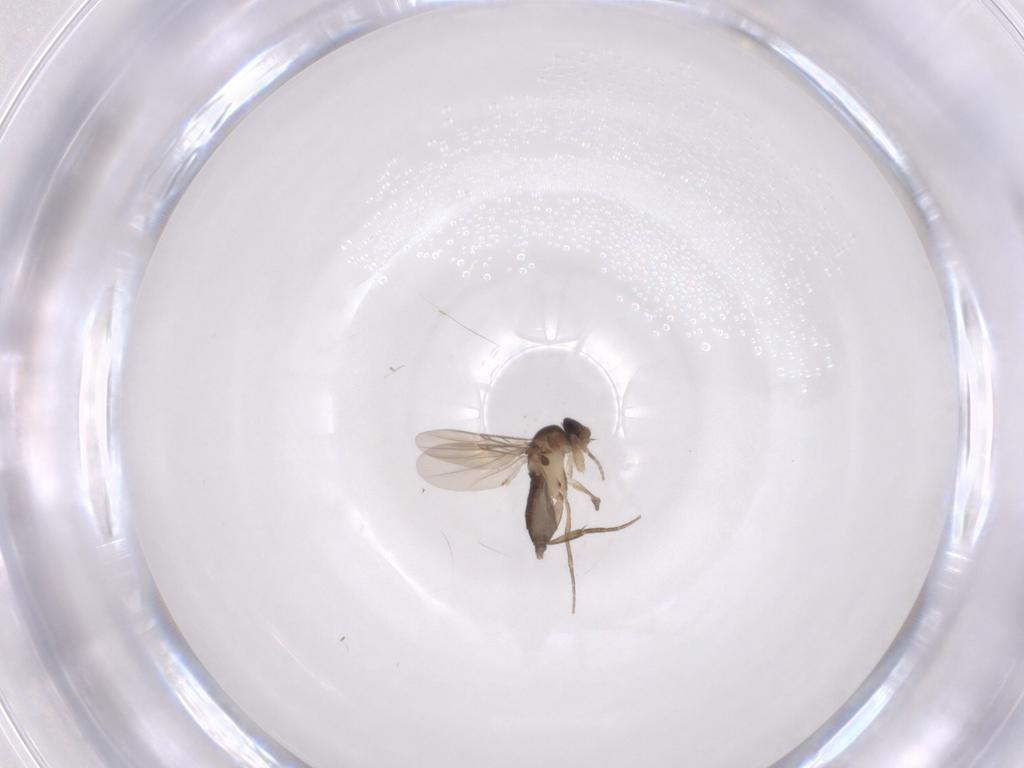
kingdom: Animalia
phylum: Arthropoda
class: Insecta
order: Diptera
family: Phoridae
